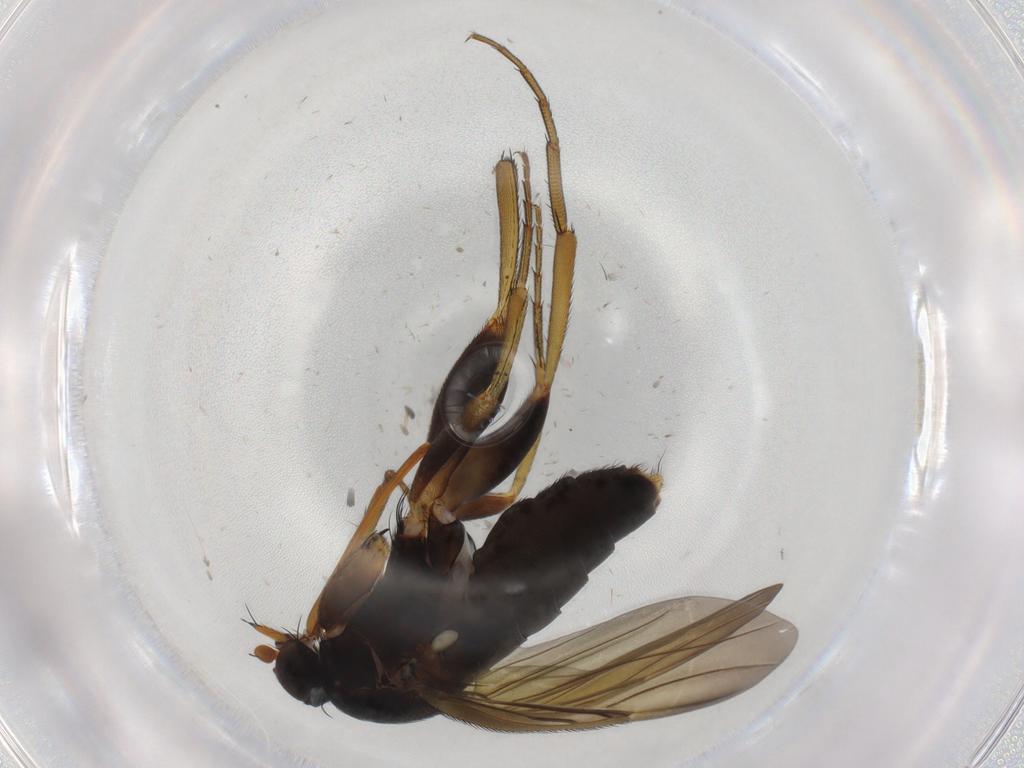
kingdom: Animalia
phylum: Arthropoda
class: Insecta
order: Diptera
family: Phoridae
